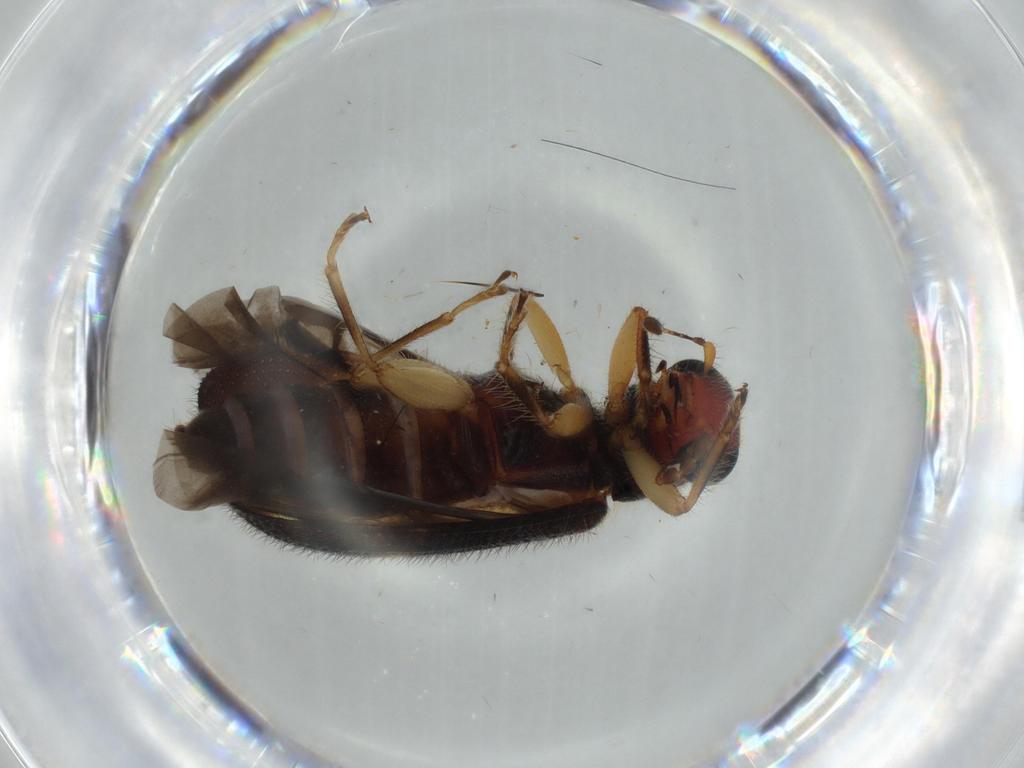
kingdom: Animalia
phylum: Arthropoda
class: Insecta
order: Coleoptera
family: Cleridae
